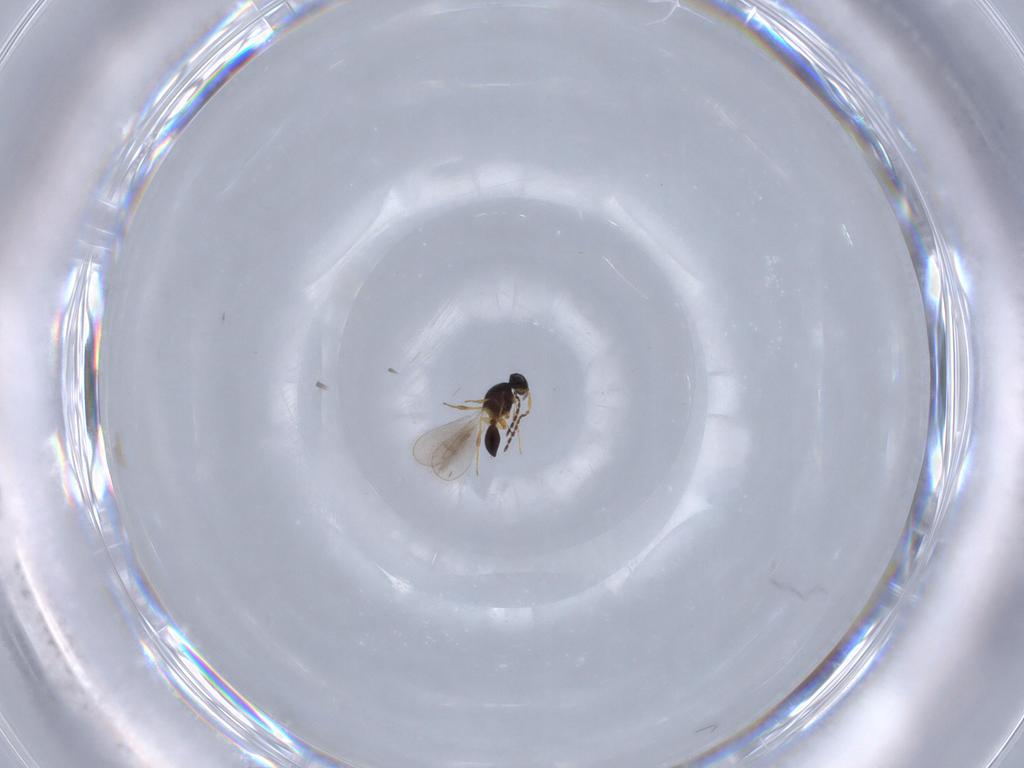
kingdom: Animalia
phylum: Arthropoda
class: Insecta
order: Hymenoptera
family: Platygastridae
